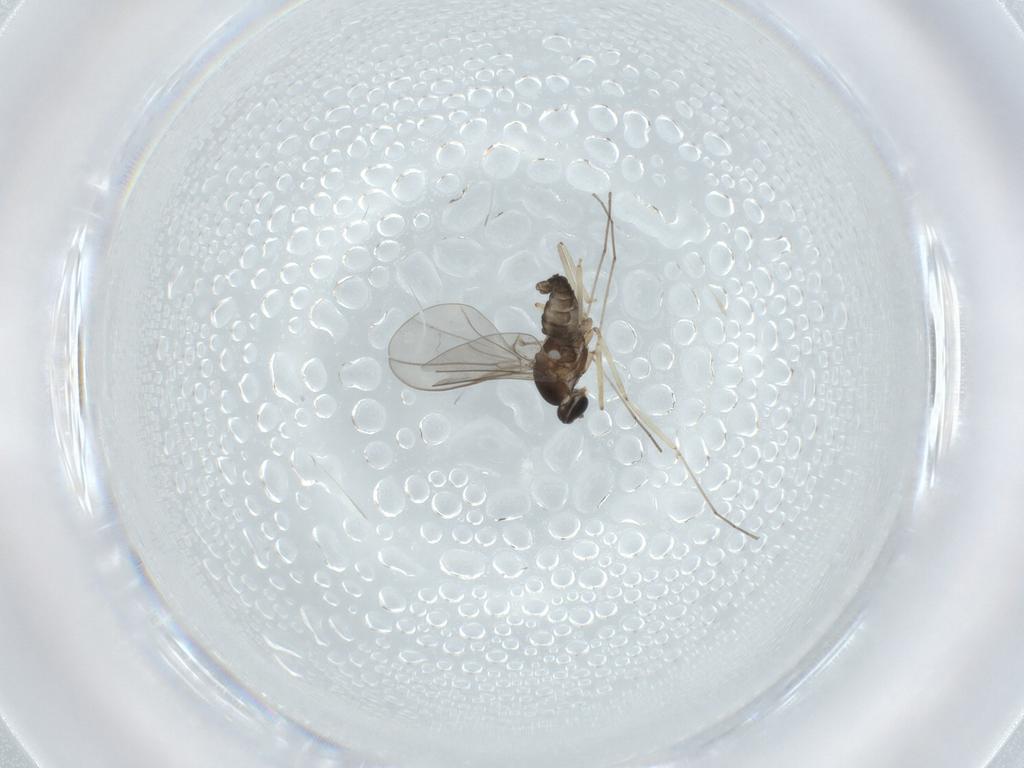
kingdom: Animalia
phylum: Arthropoda
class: Insecta
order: Diptera
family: Cecidomyiidae
